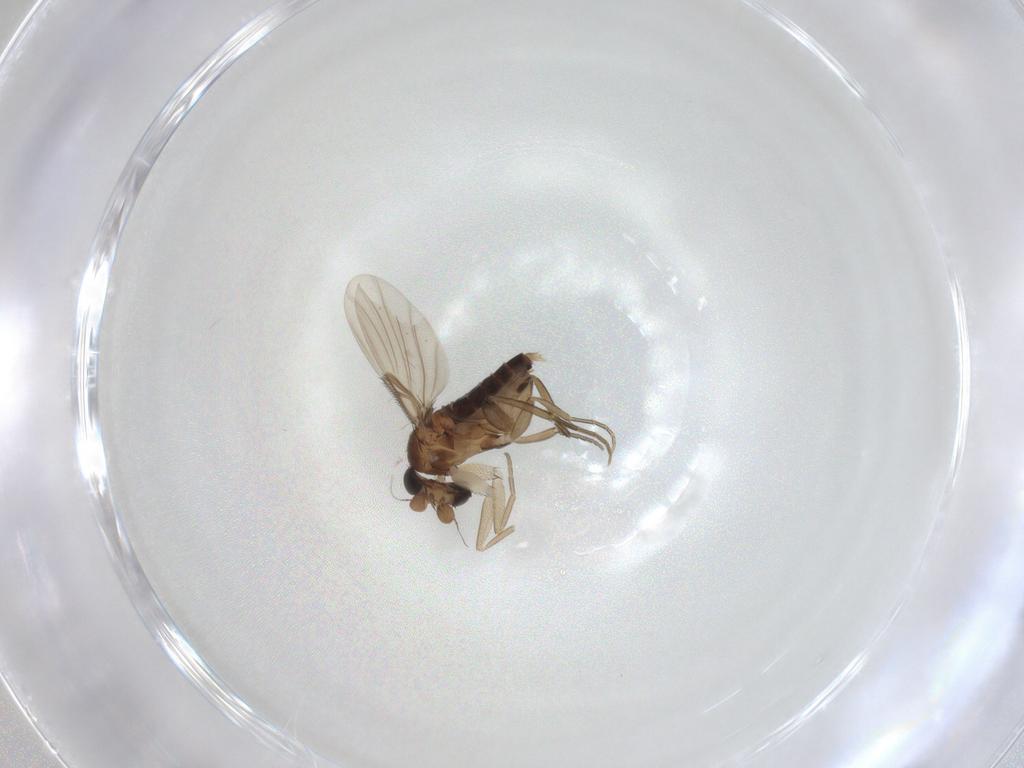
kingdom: Animalia
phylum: Arthropoda
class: Insecta
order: Diptera
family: Phoridae
